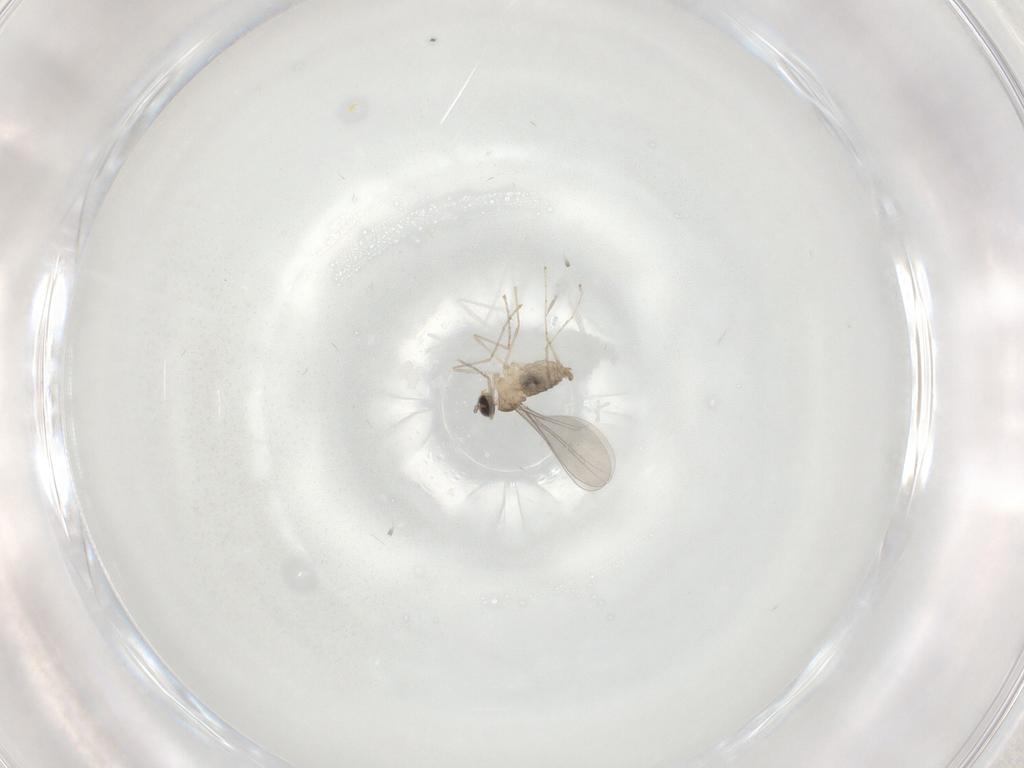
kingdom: Animalia
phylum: Arthropoda
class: Insecta
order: Diptera
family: Cecidomyiidae
